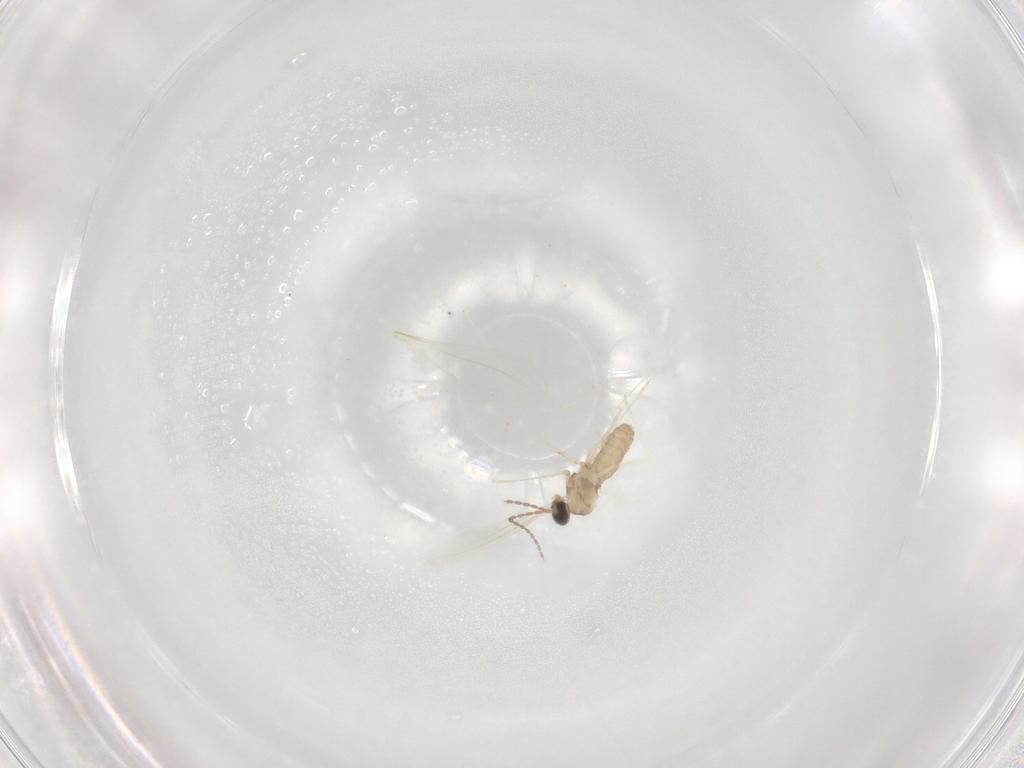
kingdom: Animalia
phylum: Arthropoda
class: Insecta
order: Diptera
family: Cecidomyiidae
